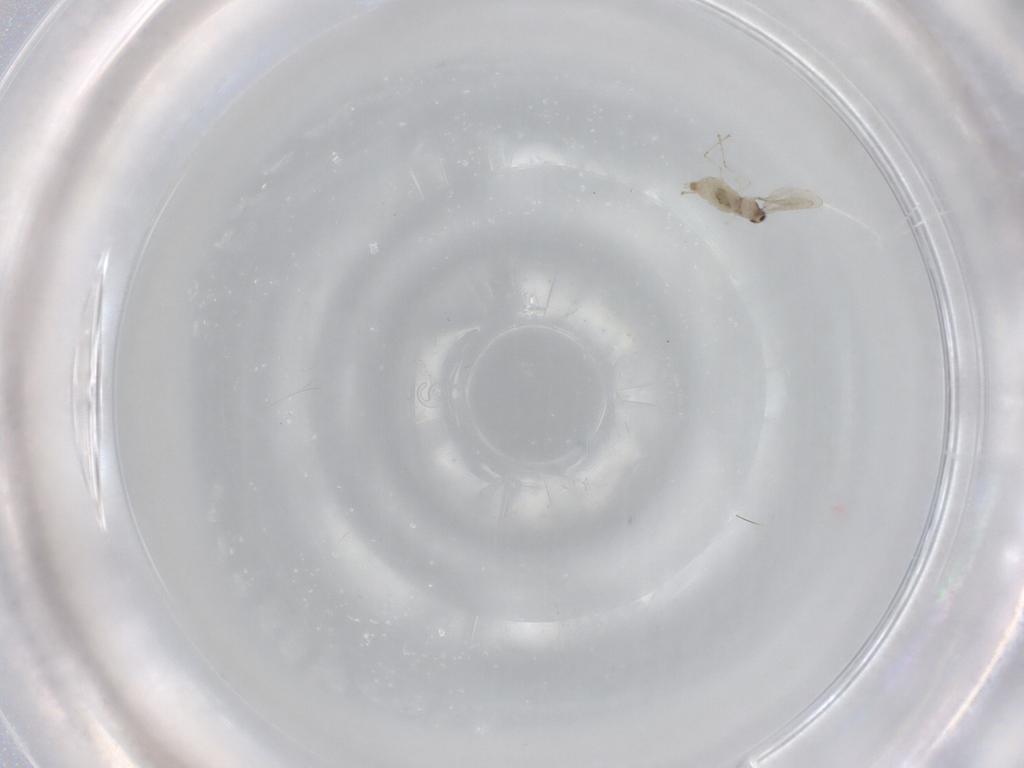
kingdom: Animalia
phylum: Arthropoda
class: Insecta
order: Diptera
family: Cecidomyiidae
